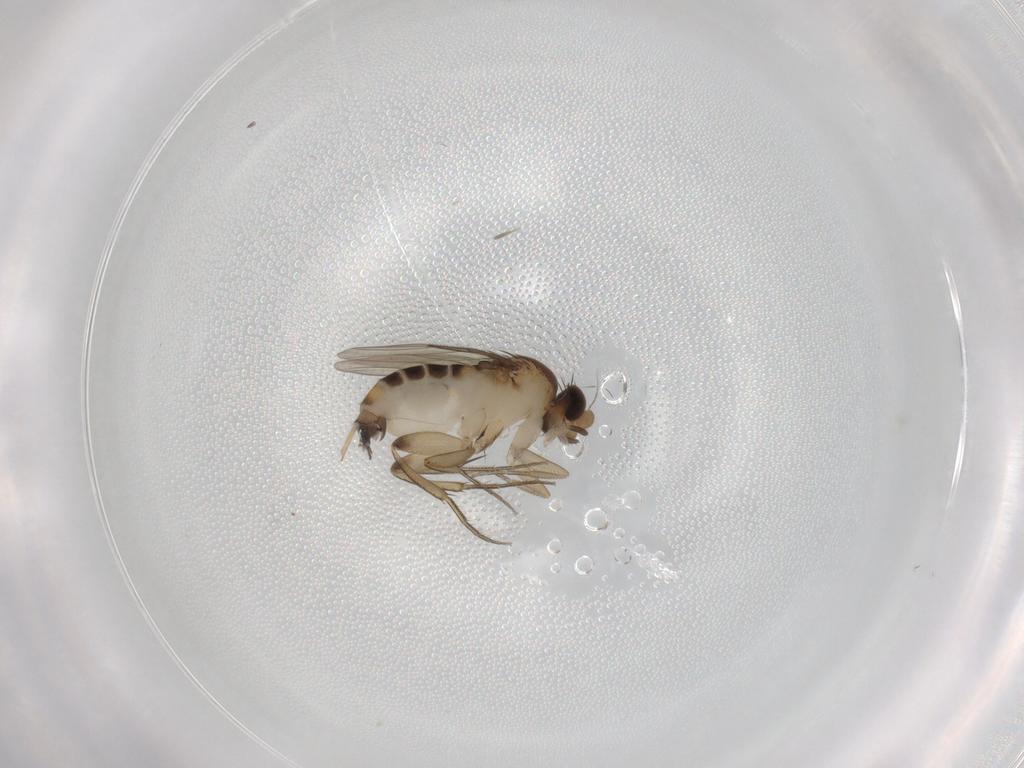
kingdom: Animalia
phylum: Arthropoda
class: Insecta
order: Diptera
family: Phoridae
